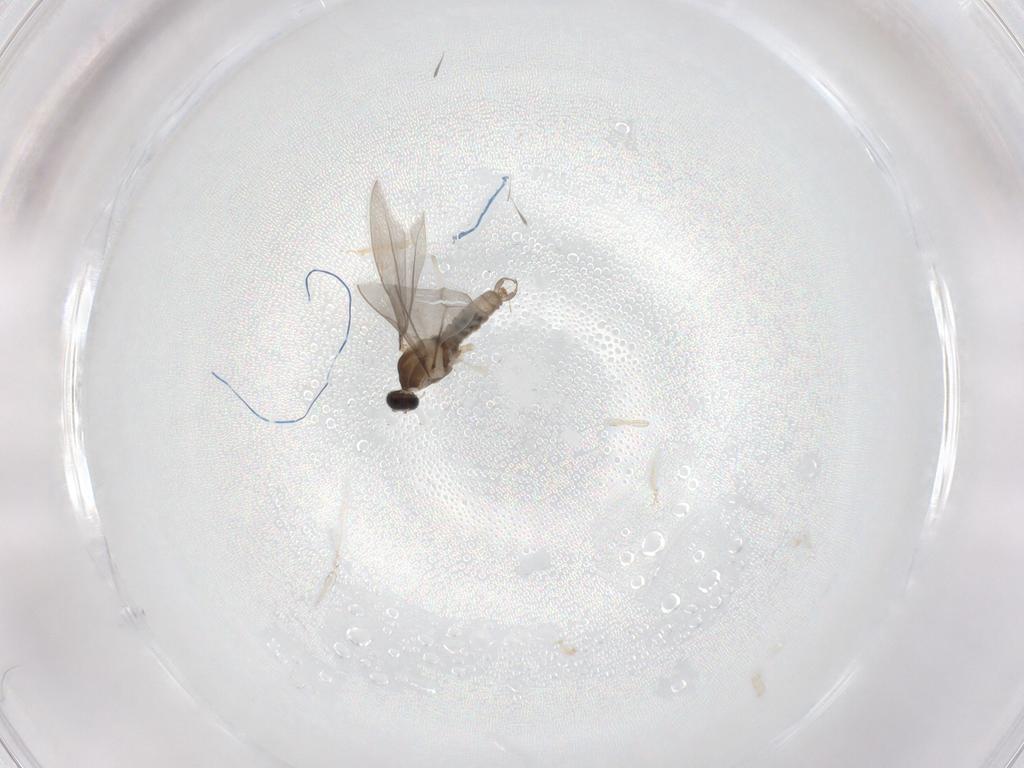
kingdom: Animalia
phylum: Arthropoda
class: Insecta
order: Diptera
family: Cecidomyiidae
